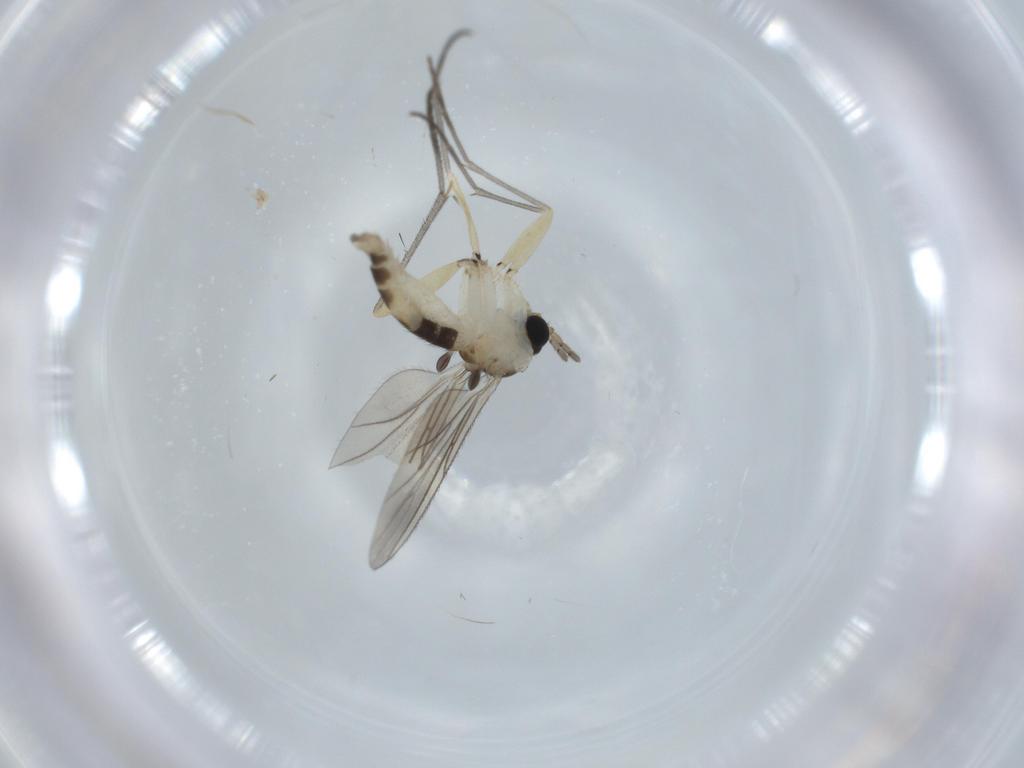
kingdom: Animalia
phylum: Arthropoda
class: Insecta
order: Diptera
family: Sciaridae
